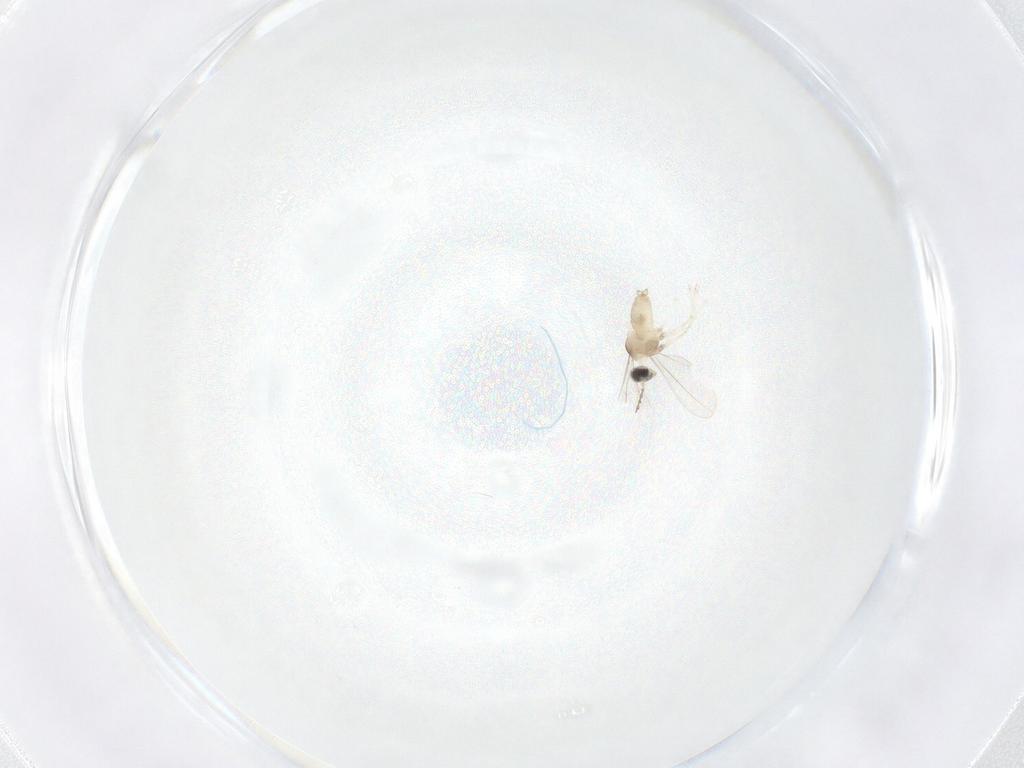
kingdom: Animalia
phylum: Arthropoda
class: Insecta
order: Diptera
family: Cecidomyiidae
